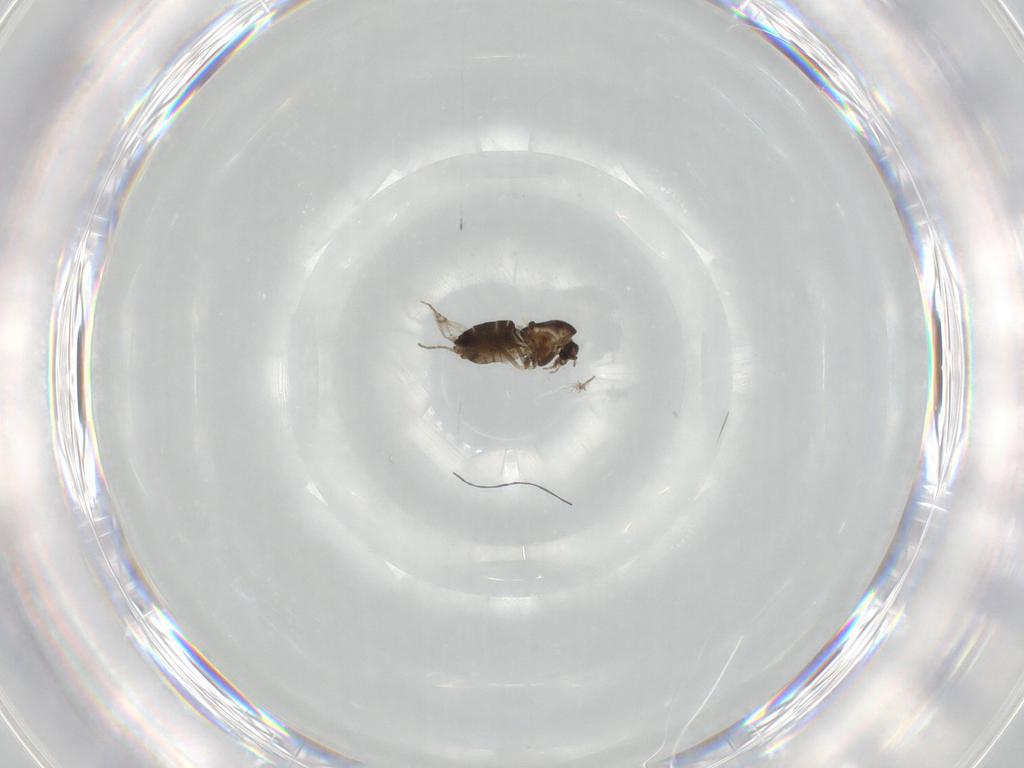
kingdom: Animalia
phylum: Arthropoda
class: Insecta
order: Diptera
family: Chironomidae
